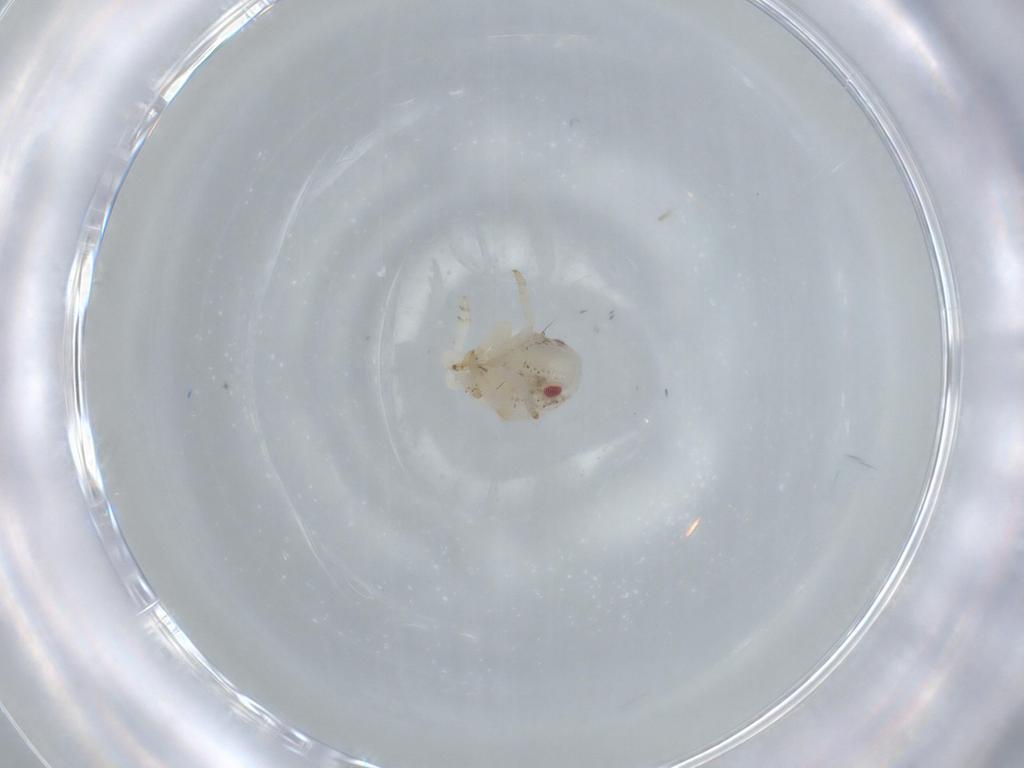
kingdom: Animalia
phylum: Arthropoda
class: Insecta
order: Hemiptera
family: Acanaloniidae
